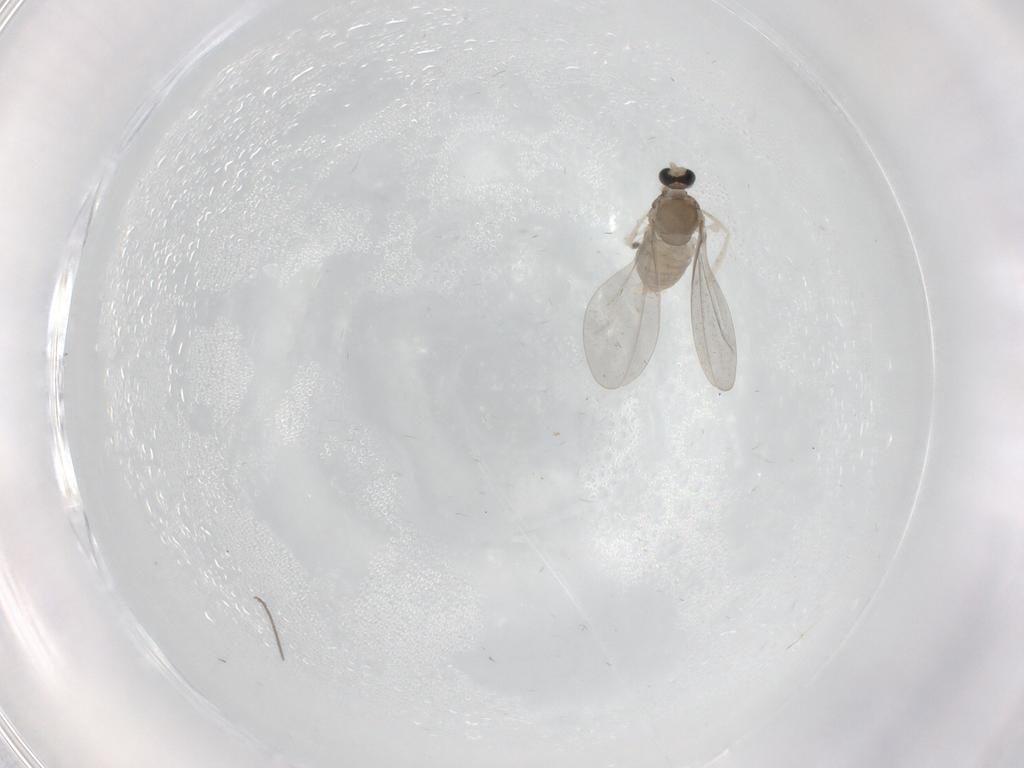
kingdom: Animalia
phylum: Arthropoda
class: Insecta
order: Diptera
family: Cecidomyiidae
